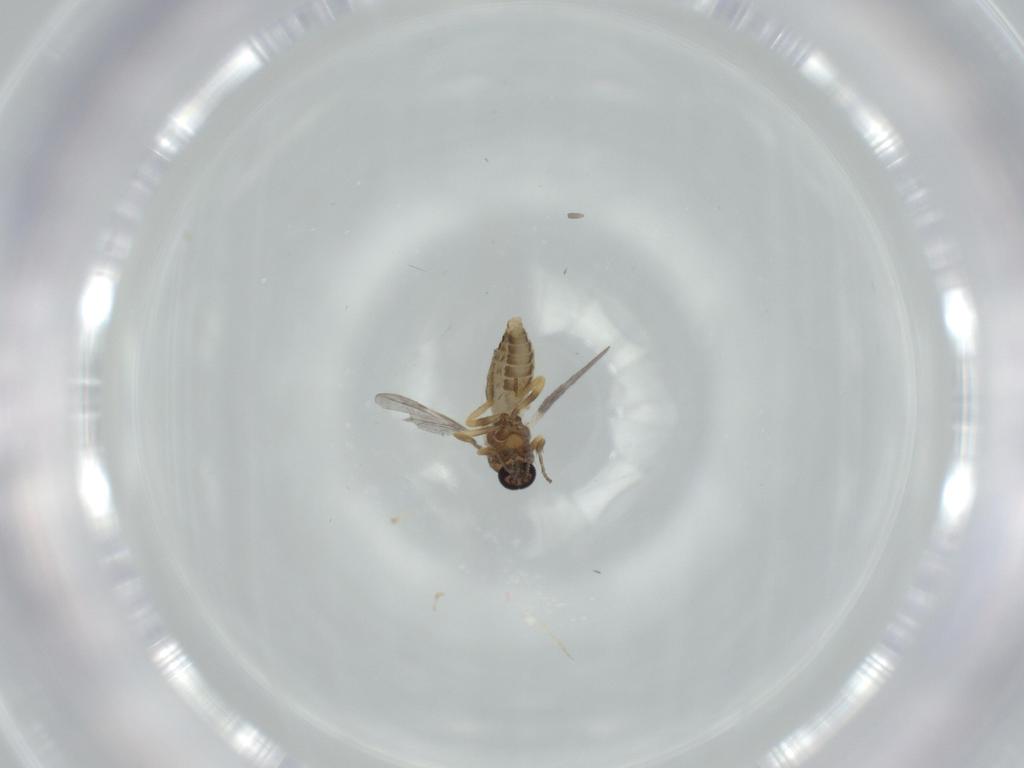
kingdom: Animalia
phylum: Arthropoda
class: Insecta
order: Diptera
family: Ceratopogonidae
